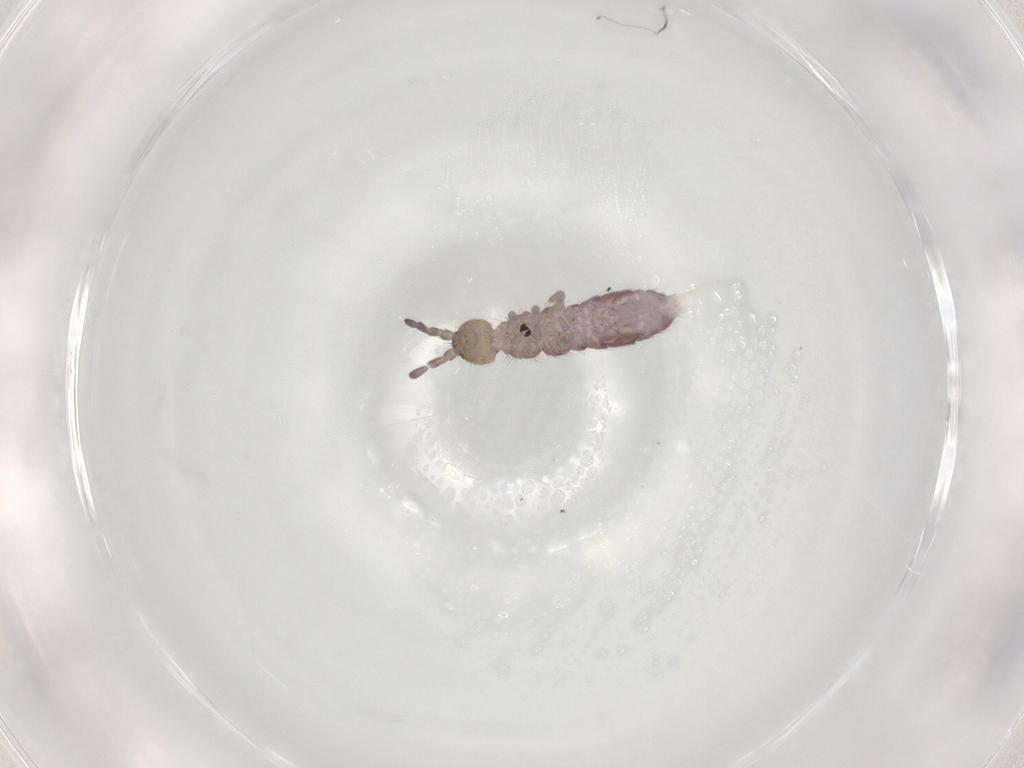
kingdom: Animalia
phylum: Arthropoda
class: Collembola
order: Entomobryomorpha
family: Isotomidae
